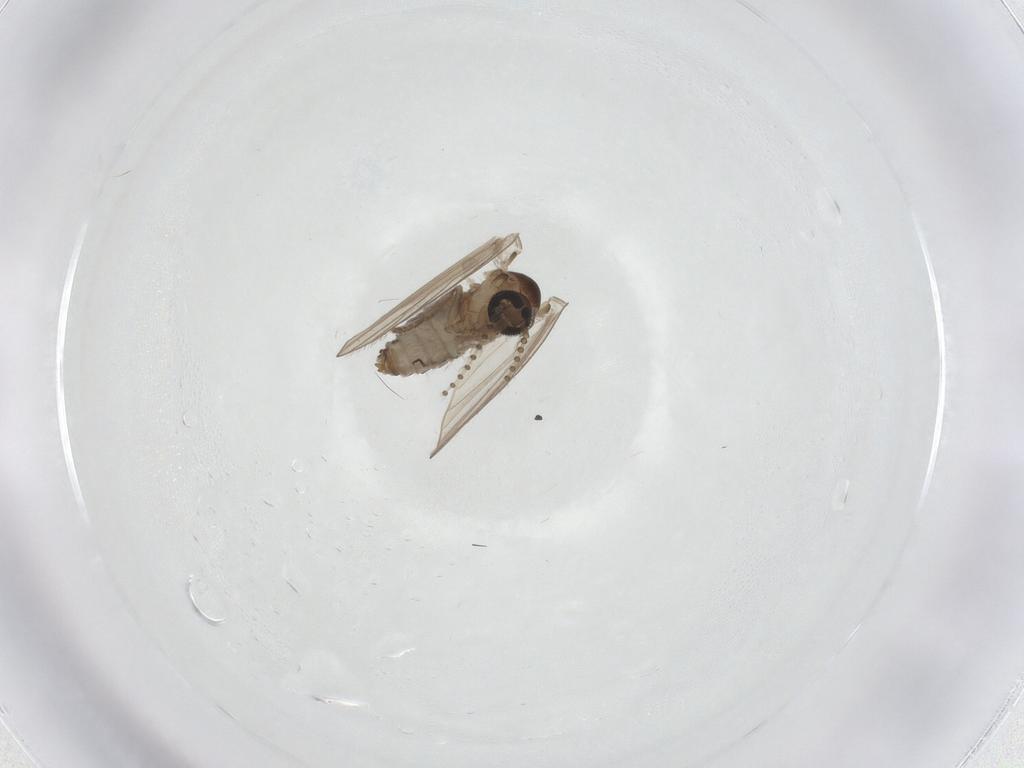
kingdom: Animalia
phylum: Arthropoda
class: Insecta
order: Diptera
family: Psychodidae
